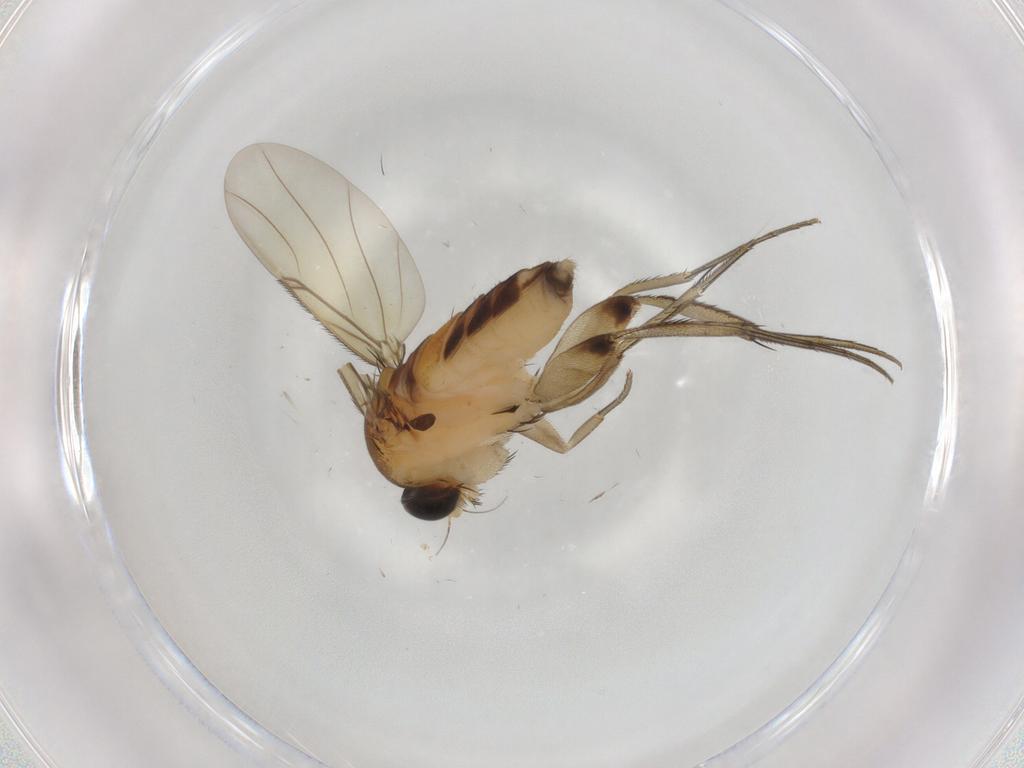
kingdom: Animalia
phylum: Arthropoda
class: Insecta
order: Diptera
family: Phoridae
